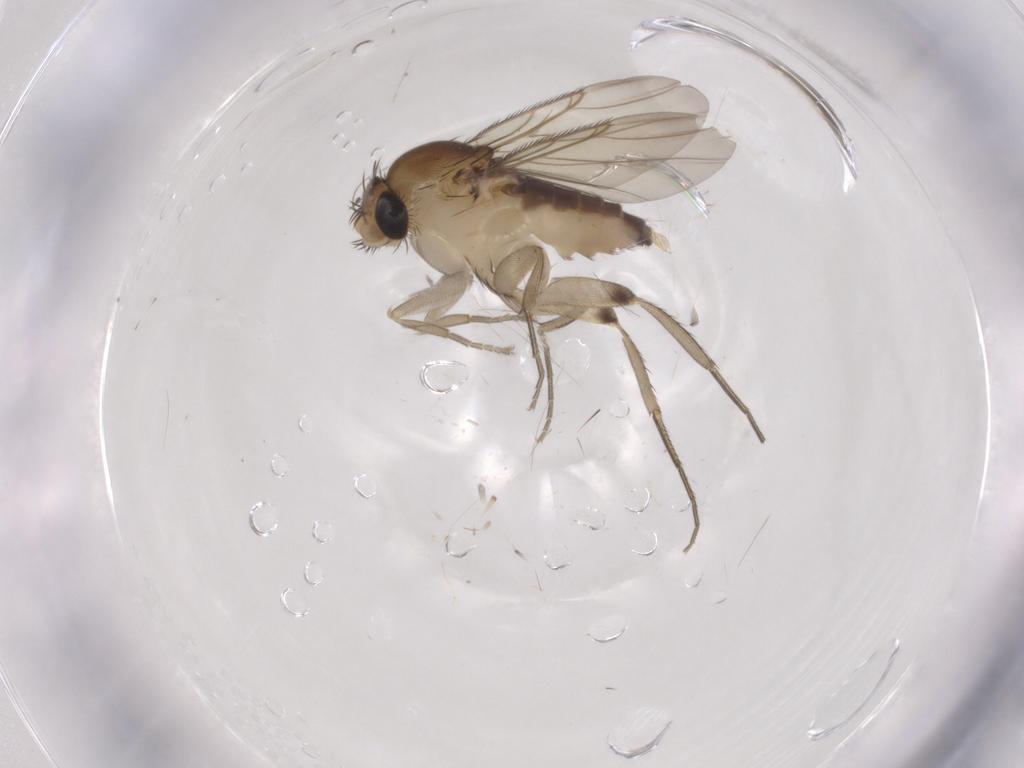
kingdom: Animalia
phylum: Arthropoda
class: Insecta
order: Diptera
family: Phoridae
